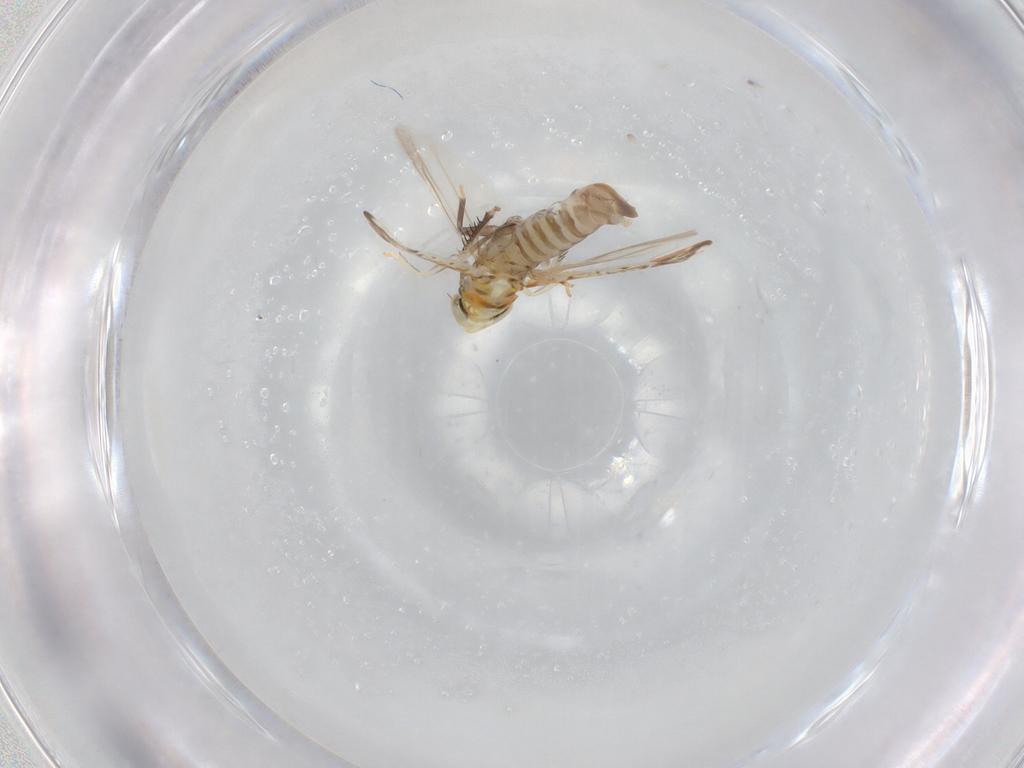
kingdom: Animalia
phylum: Arthropoda
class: Insecta
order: Hemiptera
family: Cicadellidae
